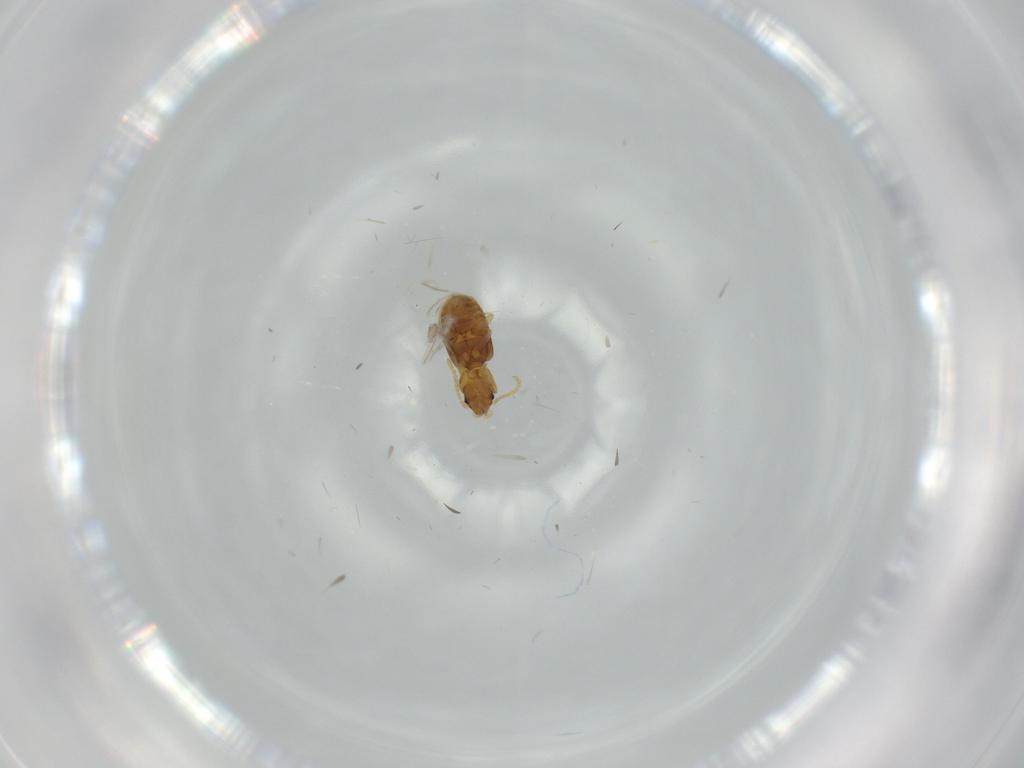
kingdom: Animalia
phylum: Arthropoda
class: Insecta
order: Coleoptera
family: Carabidae
